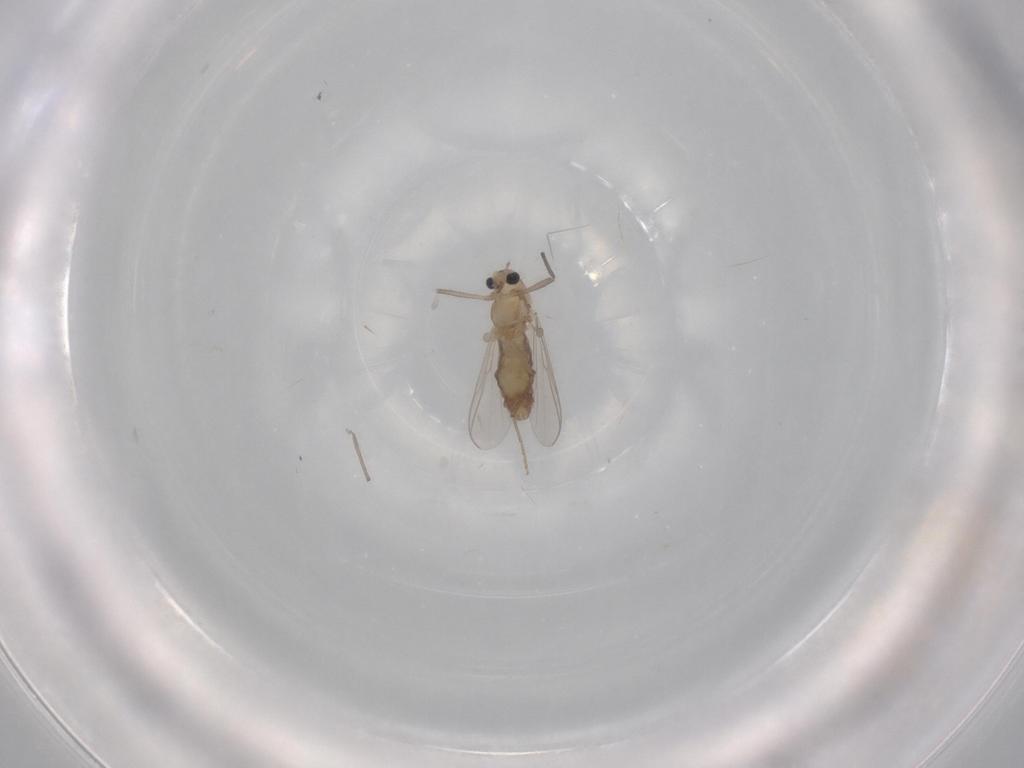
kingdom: Animalia
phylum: Arthropoda
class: Insecta
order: Diptera
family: Chironomidae
